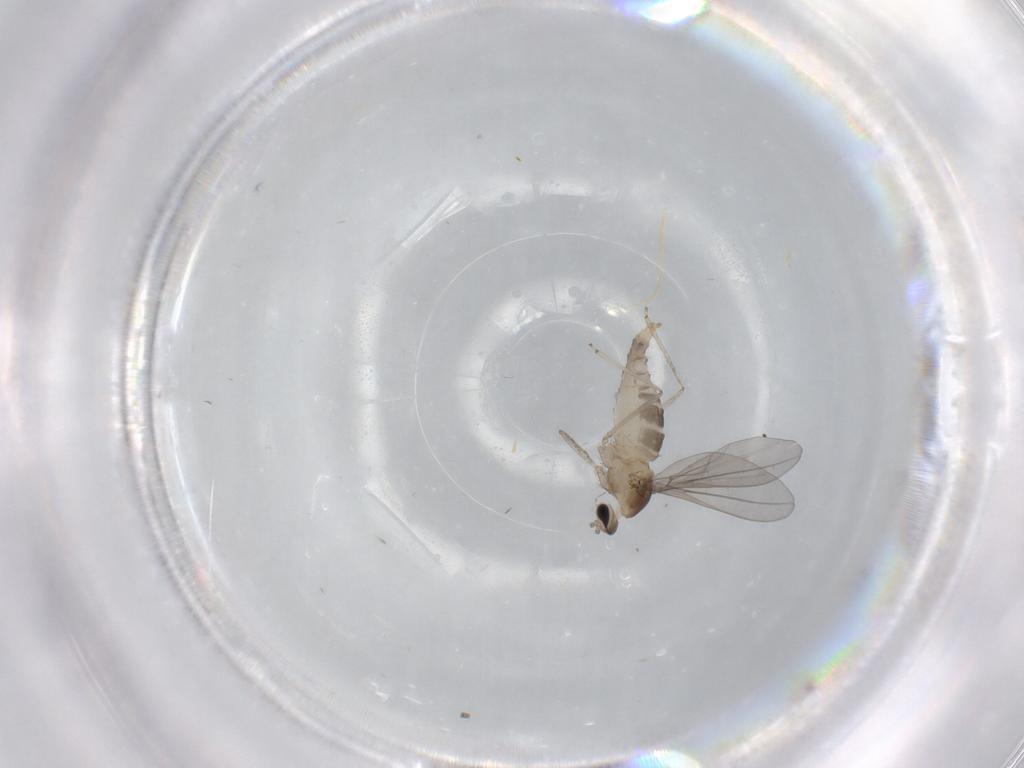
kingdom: Animalia
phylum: Arthropoda
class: Insecta
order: Diptera
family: Cecidomyiidae
